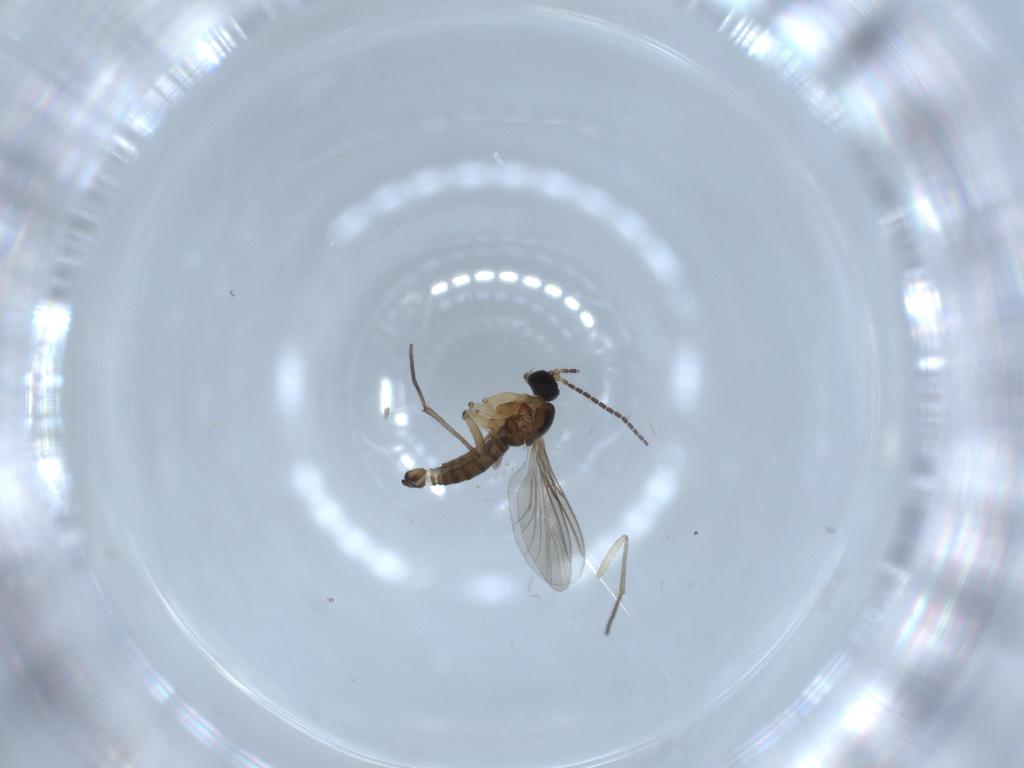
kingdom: Animalia
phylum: Arthropoda
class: Insecta
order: Diptera
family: Sciaridae
